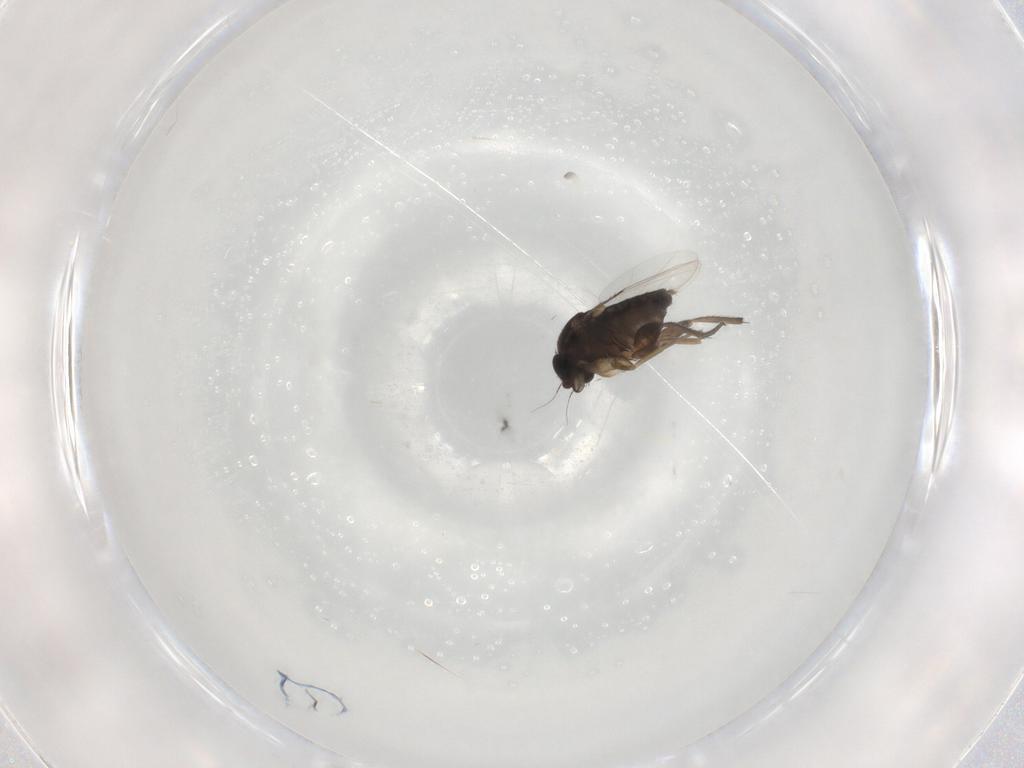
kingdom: Animalia
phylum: Arthropoda
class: Insecta
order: Diptera
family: Phoridae
